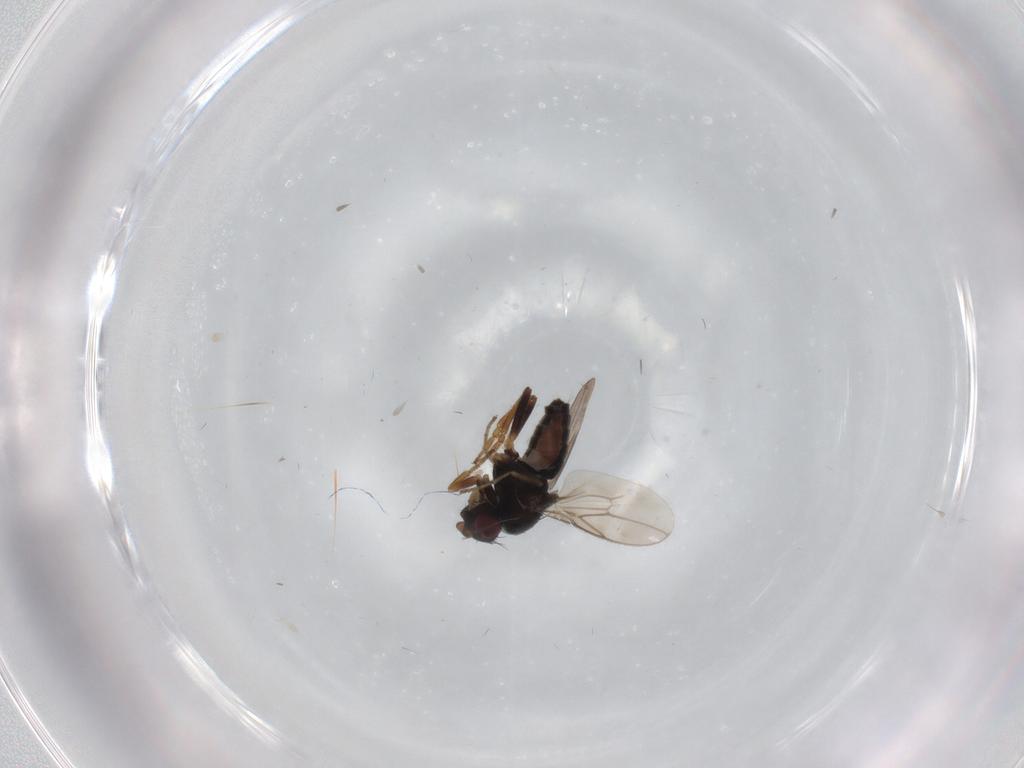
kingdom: Animalia
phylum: Arthropoda
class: Insecta
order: Diptera
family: Sphaeroceridae
